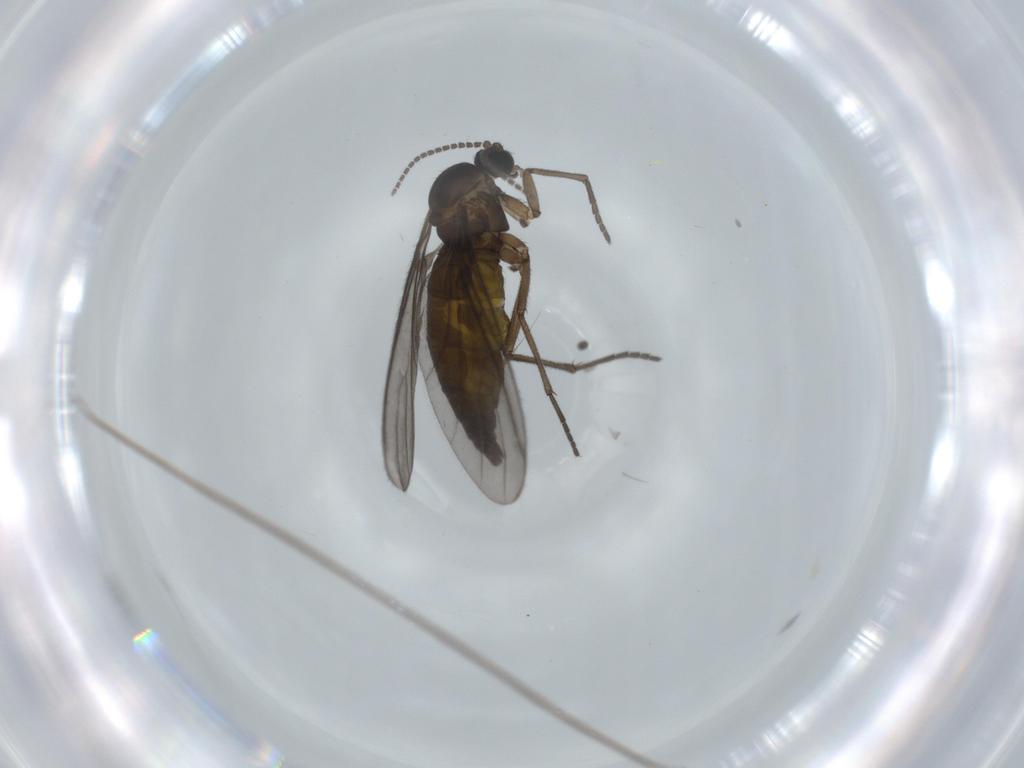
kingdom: Animalia
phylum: Arthropoda
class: Insecta
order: Diptera
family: Sciaridae
